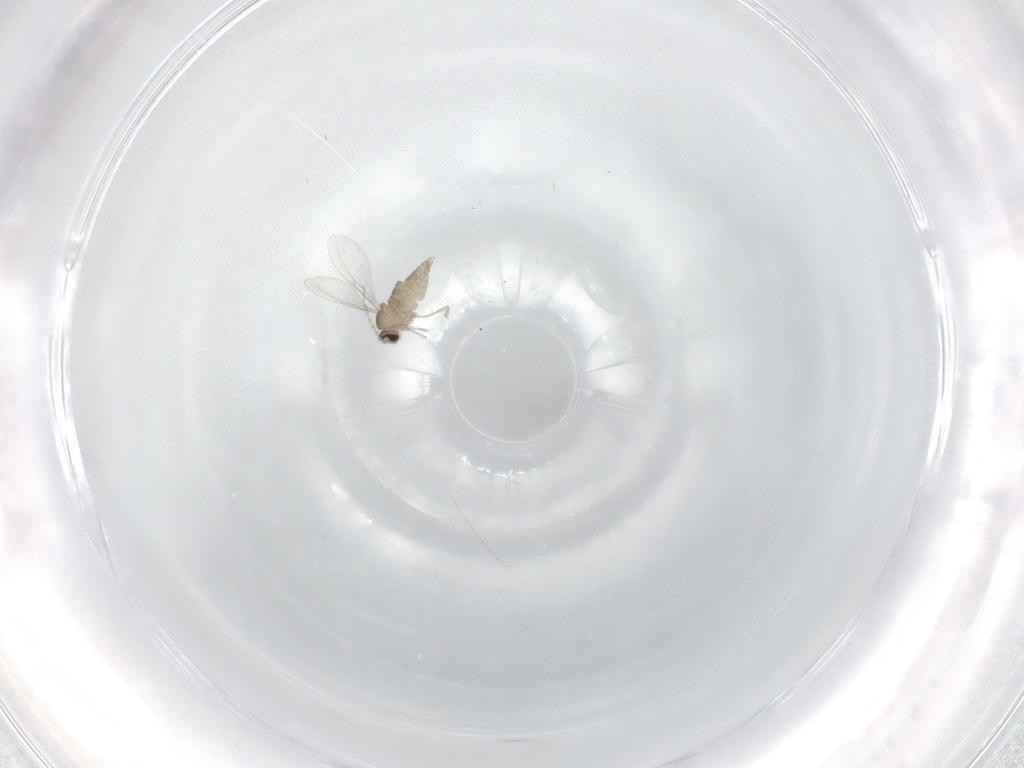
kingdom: Animalia
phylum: Arthropoda
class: Insecta
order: Diptera
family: Cecidomyiidae
